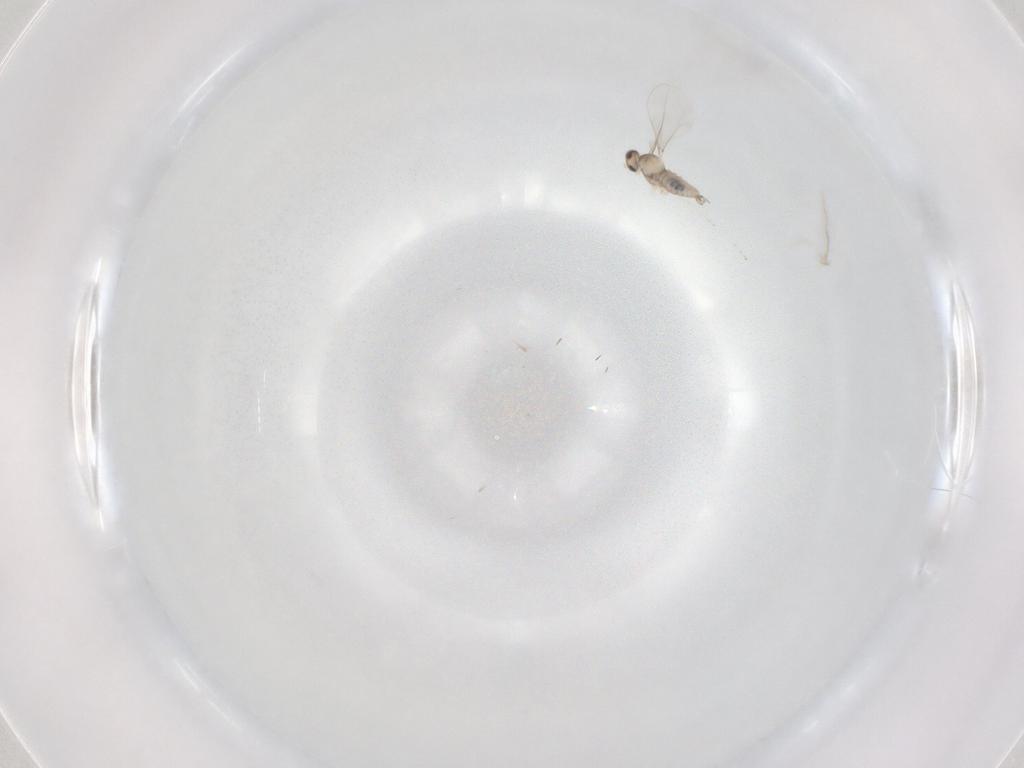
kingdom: Animalia
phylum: Arthropoda
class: Insecta
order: Diptera
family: Cecidomyiidae
